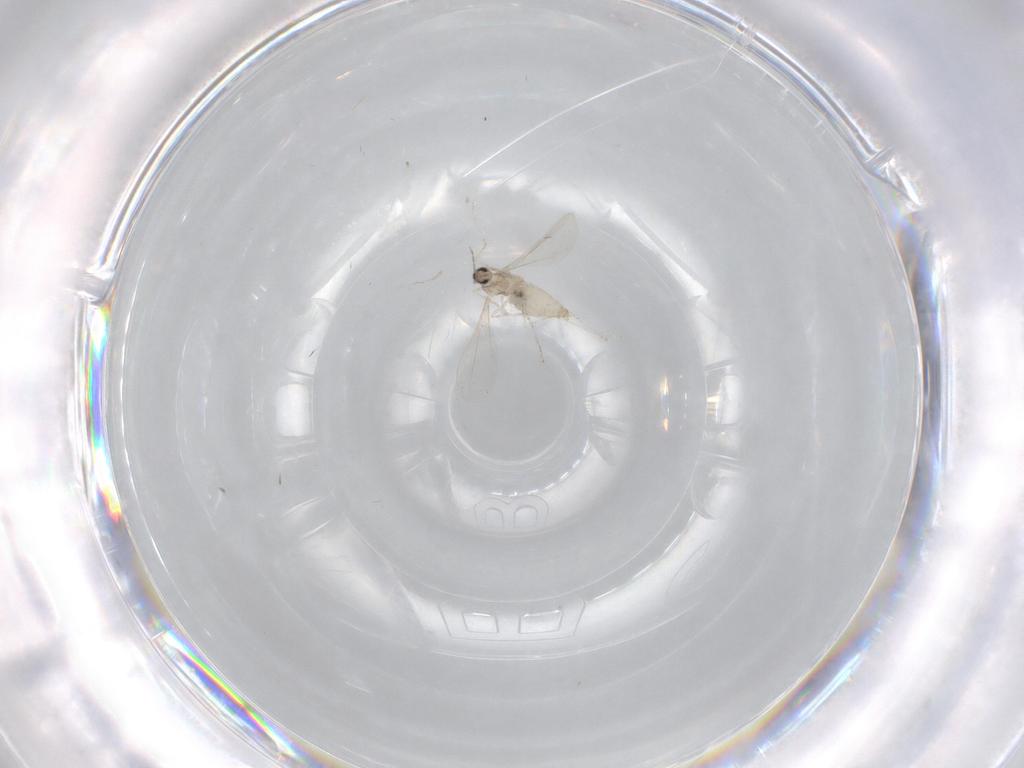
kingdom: Animalia
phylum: Arthropoda
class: Insecta
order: Diptera
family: Cecidomyiidae
